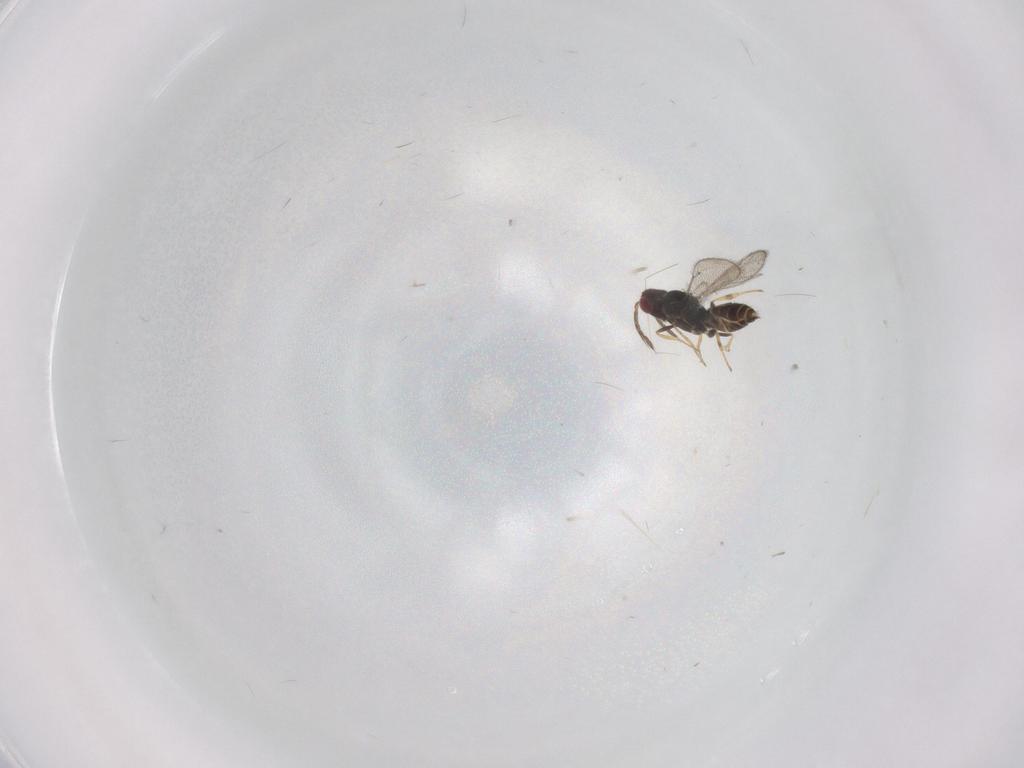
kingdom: Animalia
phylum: Arthropoda
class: Insecta
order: Hymenoptera
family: Eulophidae
